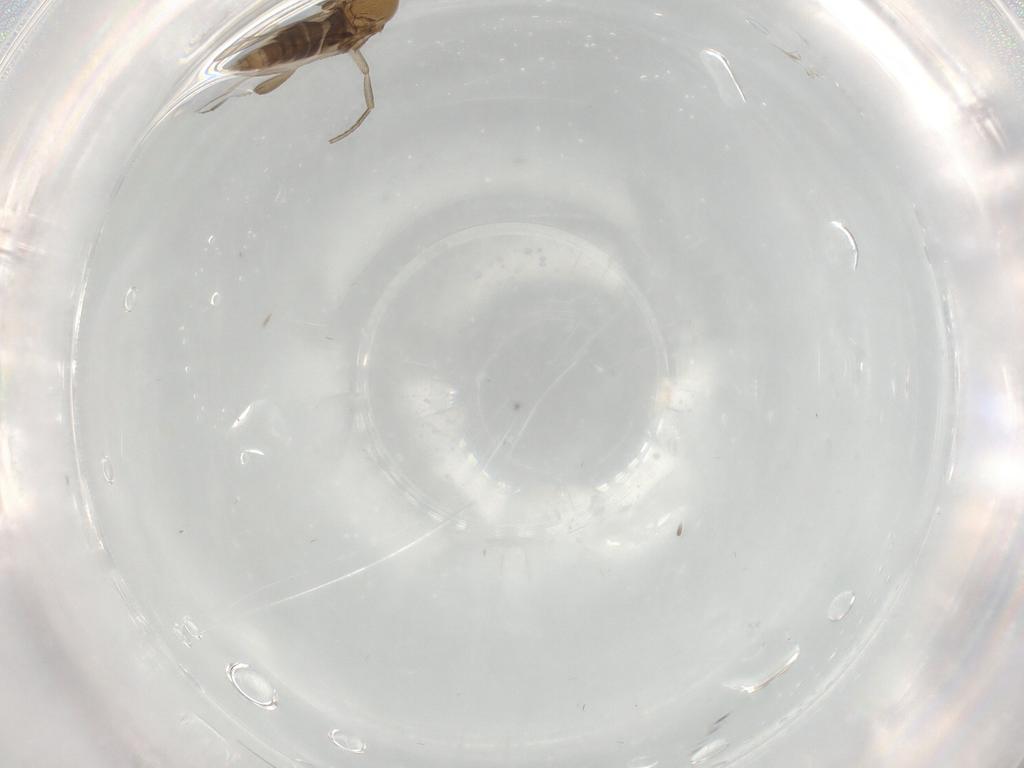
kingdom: Animalia
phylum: Arthropoda
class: Insecta
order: Diptera
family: Phoridae
